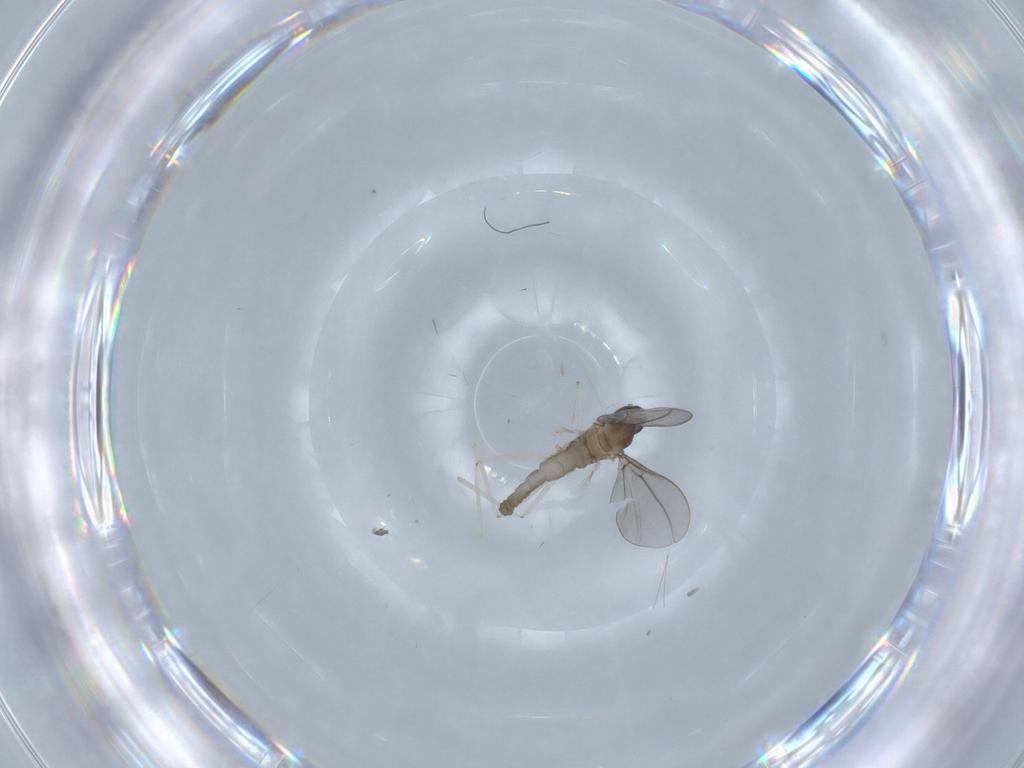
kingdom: Animalia
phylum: Arthropoda
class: Insecta
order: Diptera
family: Cecidomyiidae
